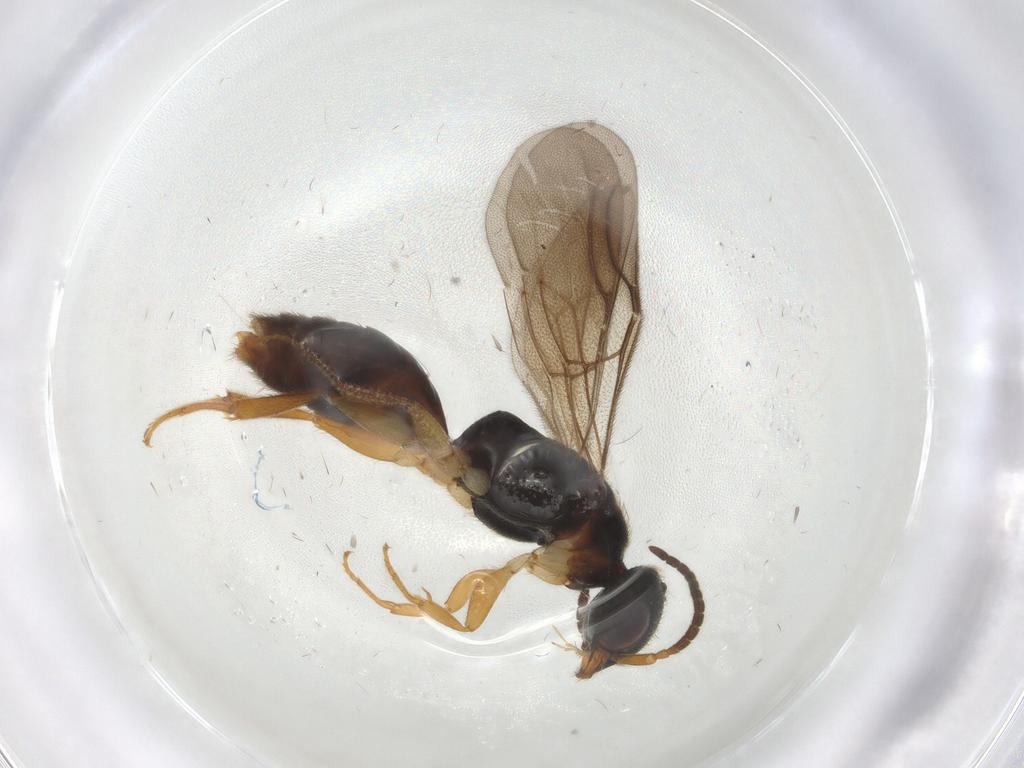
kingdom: Animalia
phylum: Arthropoda
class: Insecta
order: Hymenoptera
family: Bethylidae
